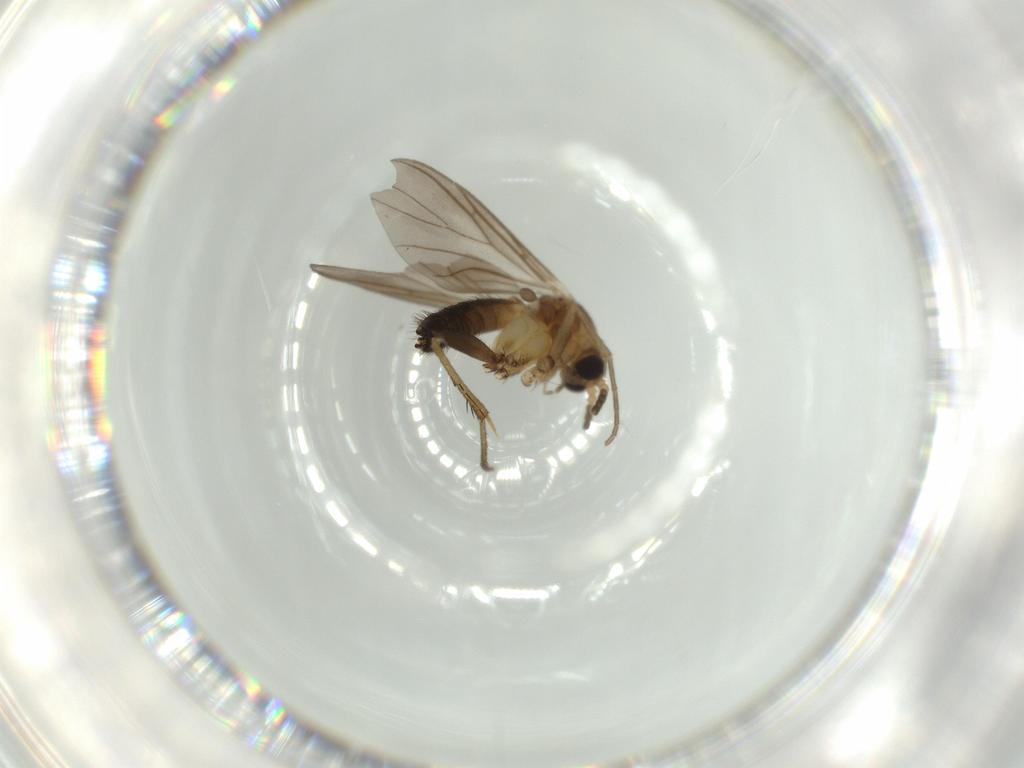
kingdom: Animalia
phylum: Arthropoda
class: Insecta
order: Diptera
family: Mycetophilidae
